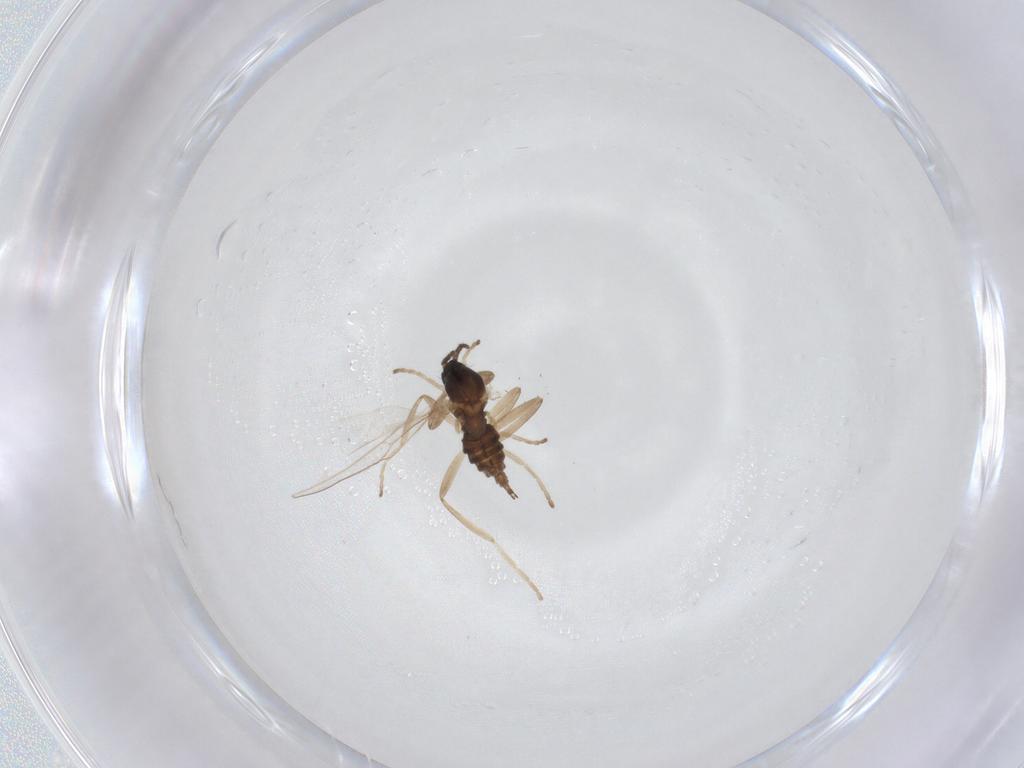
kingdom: Animalia
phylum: Arthropoda
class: Insecta
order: Diptera
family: Cecidomyiidae
